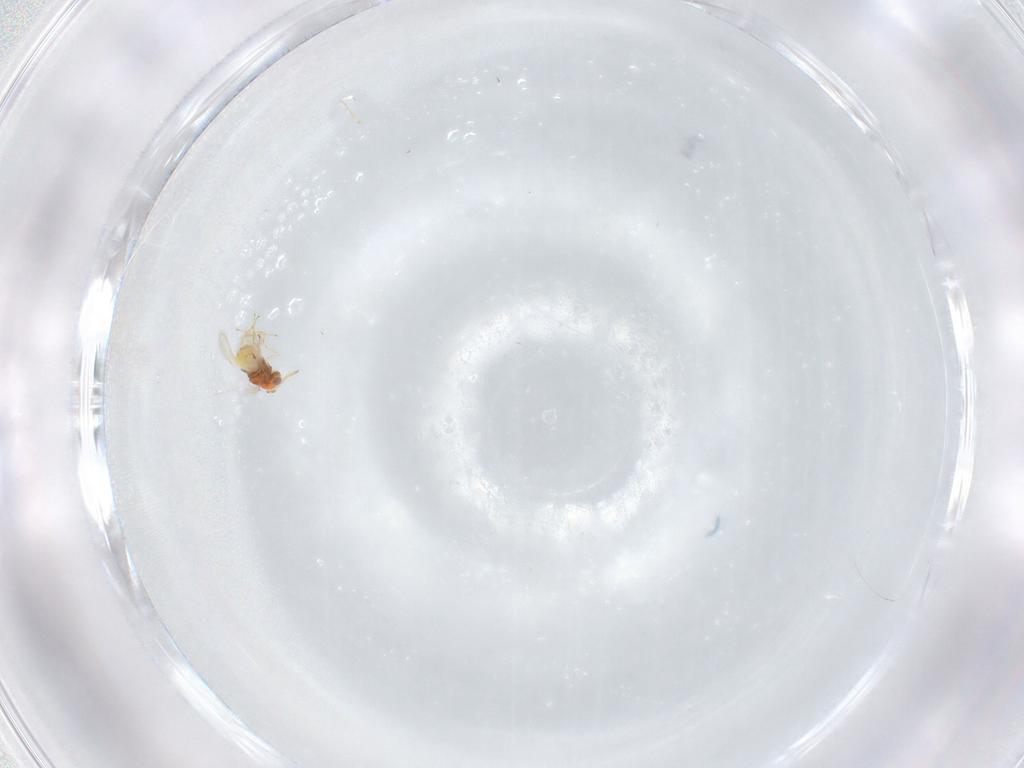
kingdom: Animalia
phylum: Arthropoda
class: Insecta
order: Hymenoptera
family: Aphelinidae
